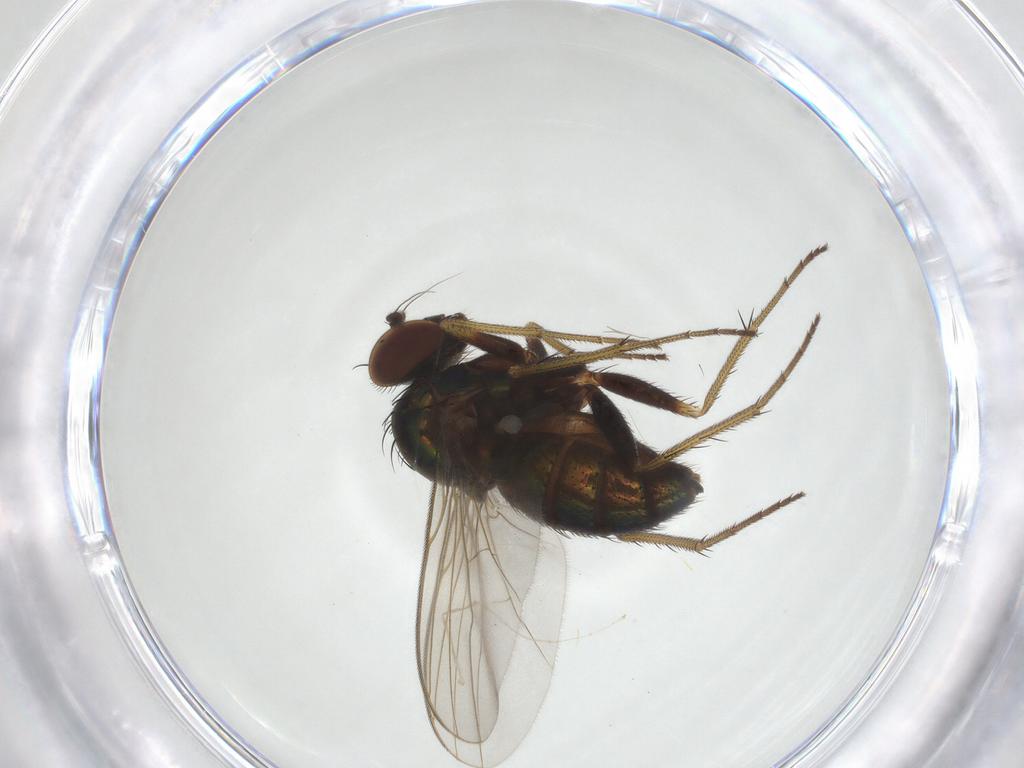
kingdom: Animalia
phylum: Arthropoda
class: Insecta
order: Diptera
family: Dolichopodidae
